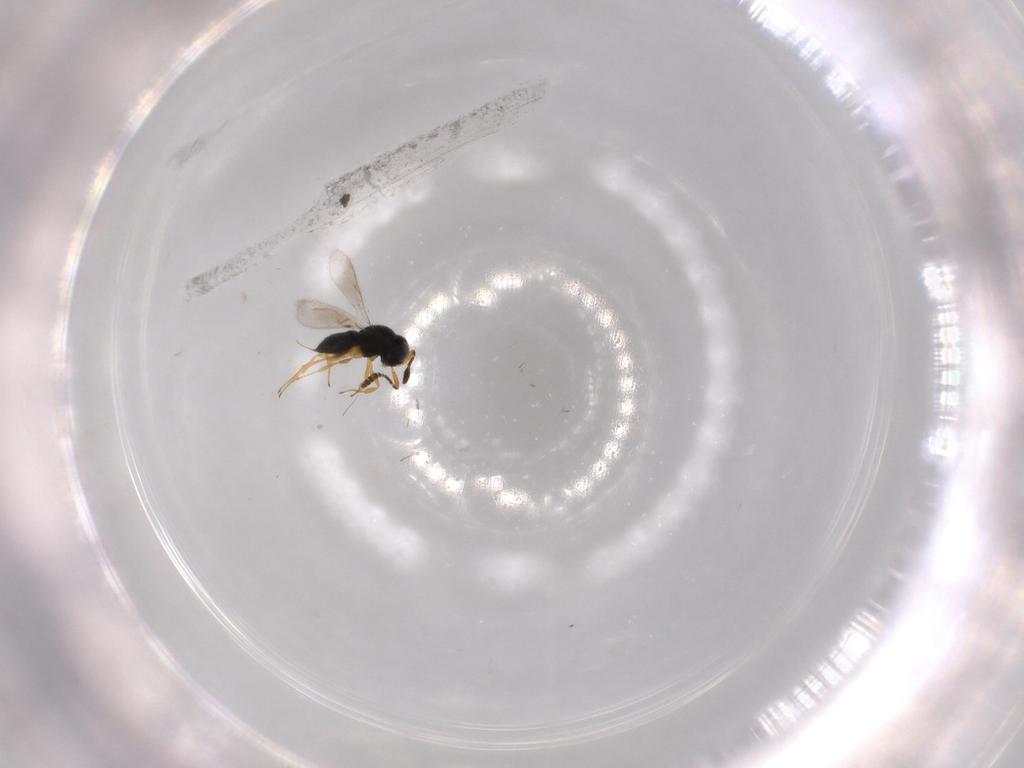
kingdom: Animalia
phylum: Arthropoda
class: Insecta
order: Hymenoptera
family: Scelionidae
